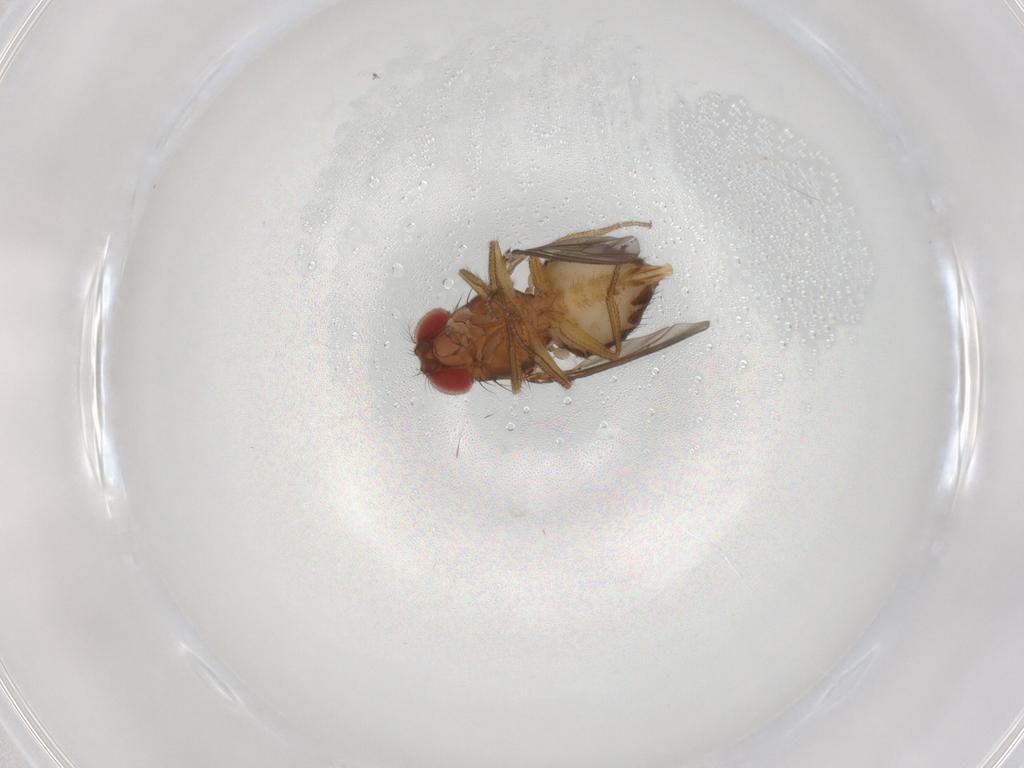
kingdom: Animalia
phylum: Arthropoda
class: Insecta
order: Diptera
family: Drosophilidae
